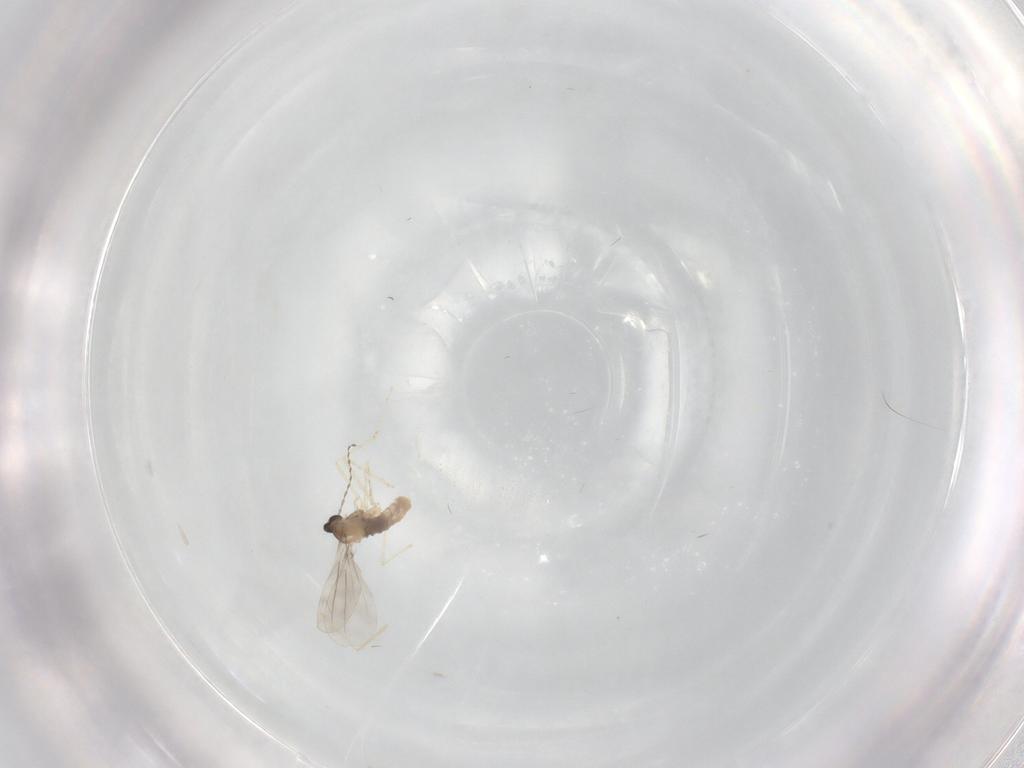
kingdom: Animalia
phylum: Arthropoda
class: Insecta
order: Diptera
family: Cecidomyiidae
